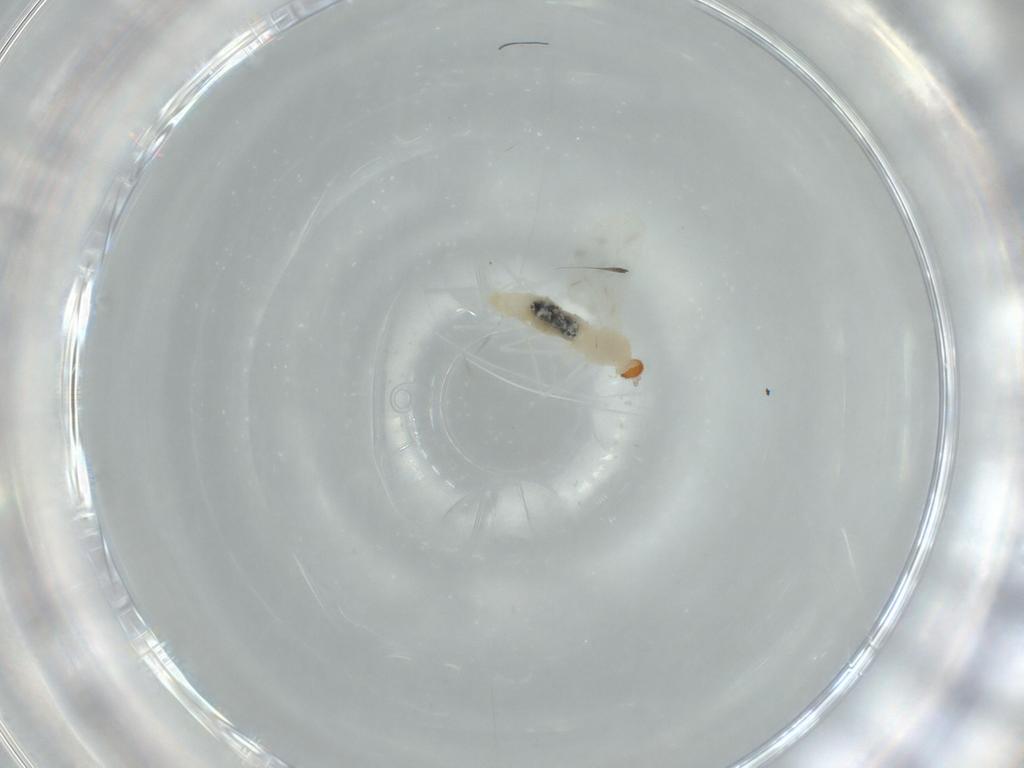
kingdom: Animalia
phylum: Arthropoda
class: Insecta
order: Diptera
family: Cecidomyiidae
